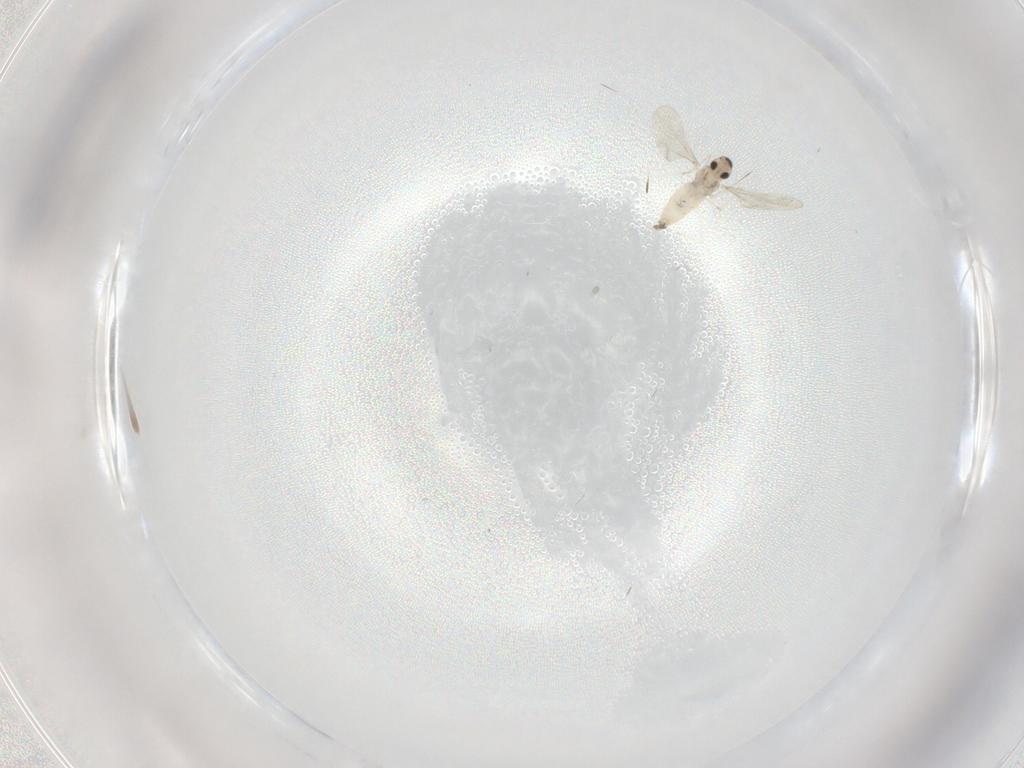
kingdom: Animalia
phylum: Arthropoda
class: Insecta
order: Diptera
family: Cecidomyiidae
